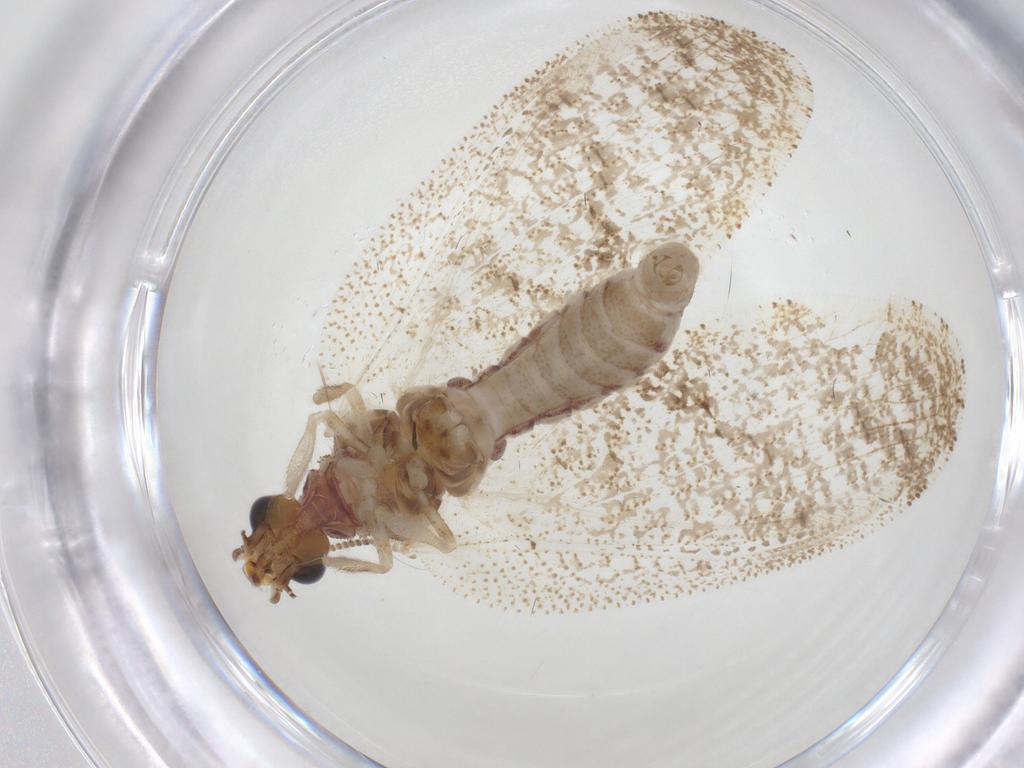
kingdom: Animalia
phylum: Arthropoda
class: Insecta
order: Neuroptera
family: Hemerobiidae
